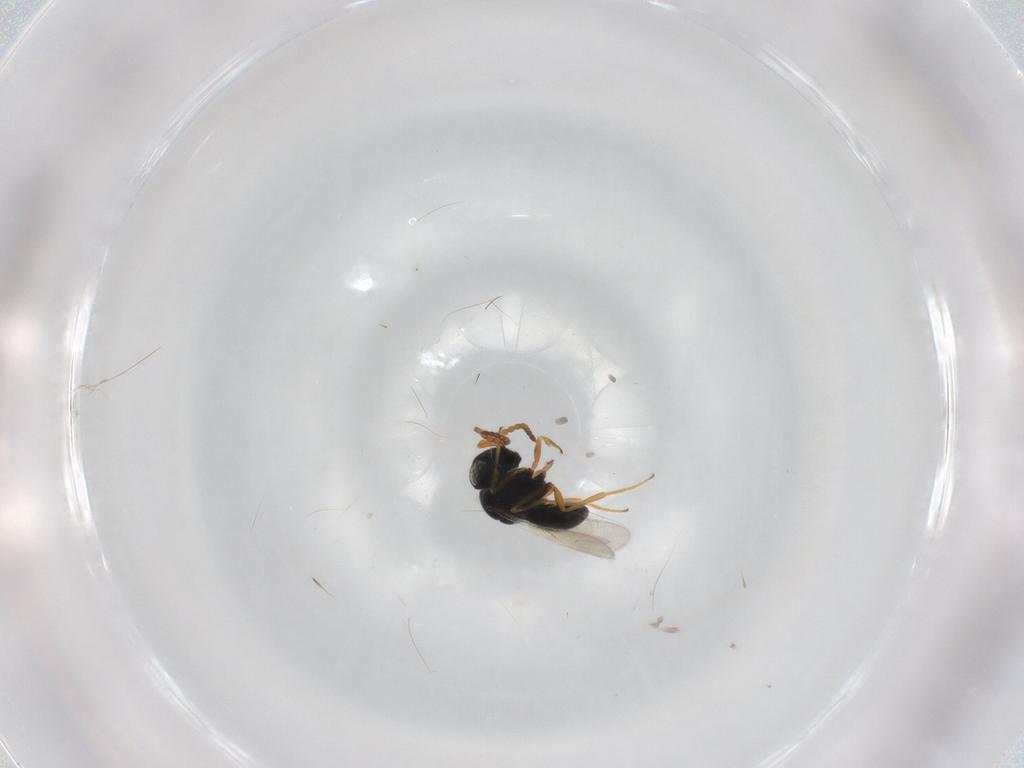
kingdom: Animalia
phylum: Arthropoda
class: Insecta
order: Hymenoptera
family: Scelionidae
